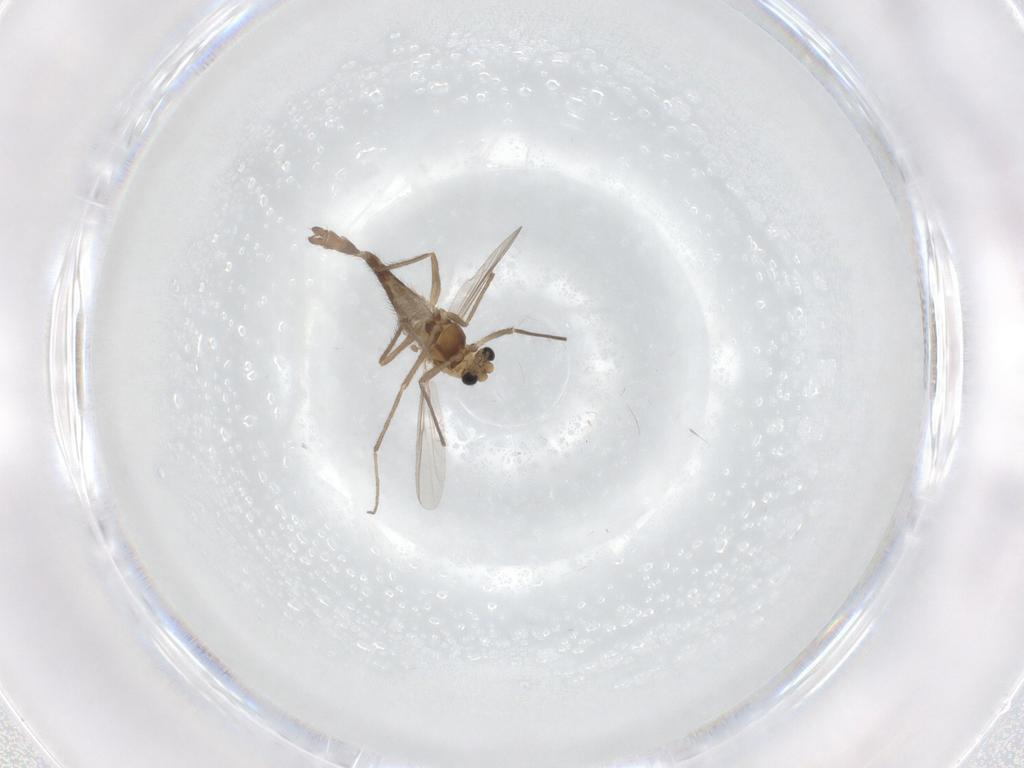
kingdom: Animalia
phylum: Arthropoda
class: Insecta
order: Diptera
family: Chironomidae
